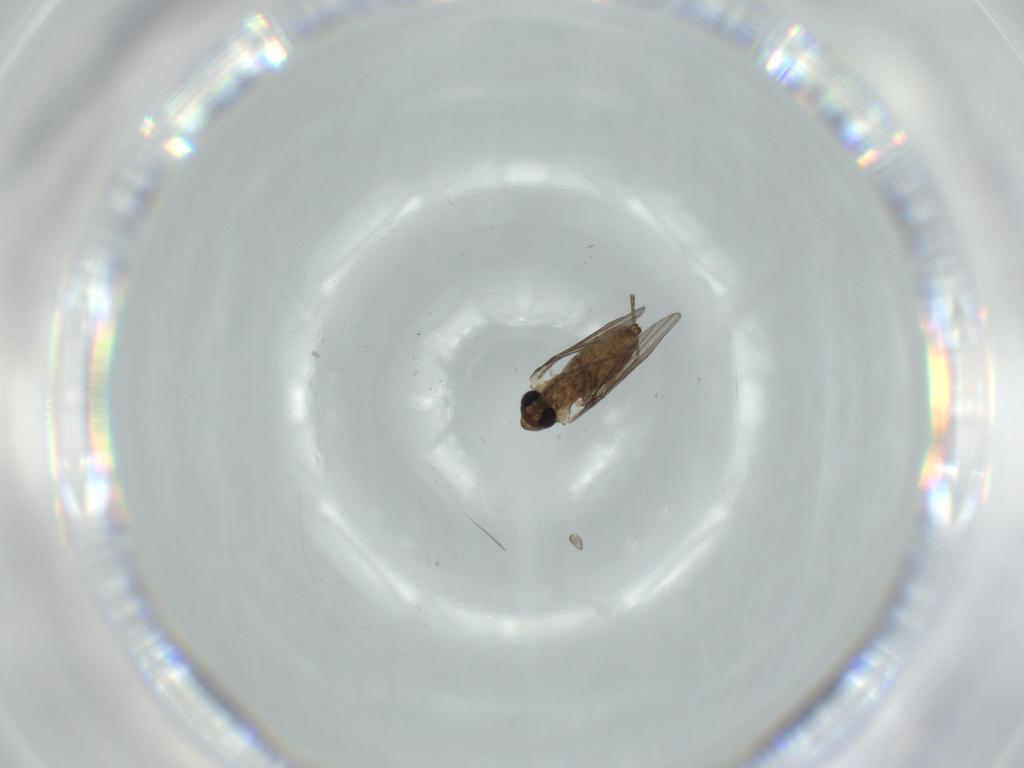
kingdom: Animalia
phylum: Arthropoda
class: Insecta
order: Diptera
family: Psychodidae
